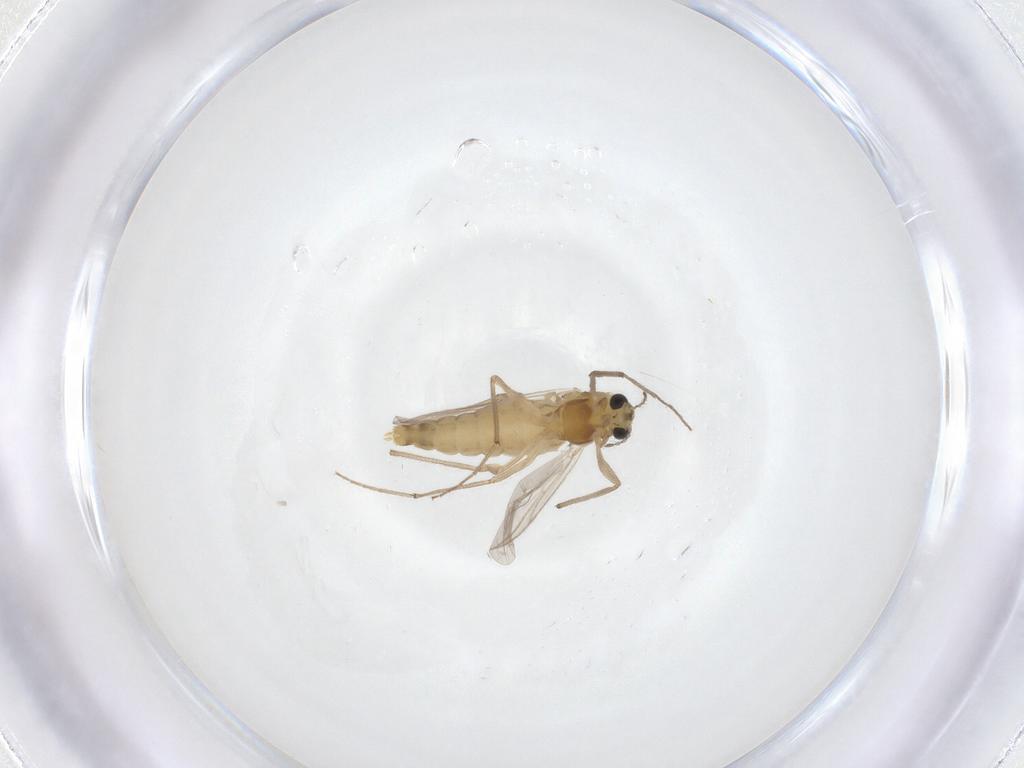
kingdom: Animalia
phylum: Arthropoda
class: Insecta
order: Diptera
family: Chironomidae
